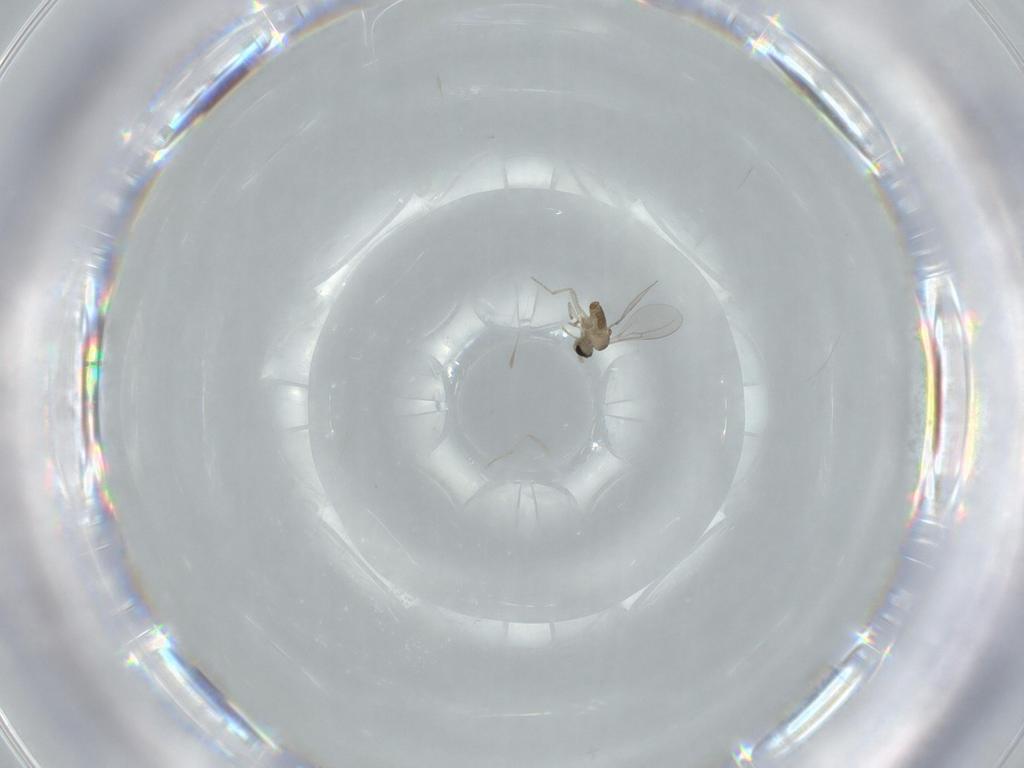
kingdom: Animalia
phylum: Arthropoda
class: Insecta
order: Diptera
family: Cecidomyiidae
